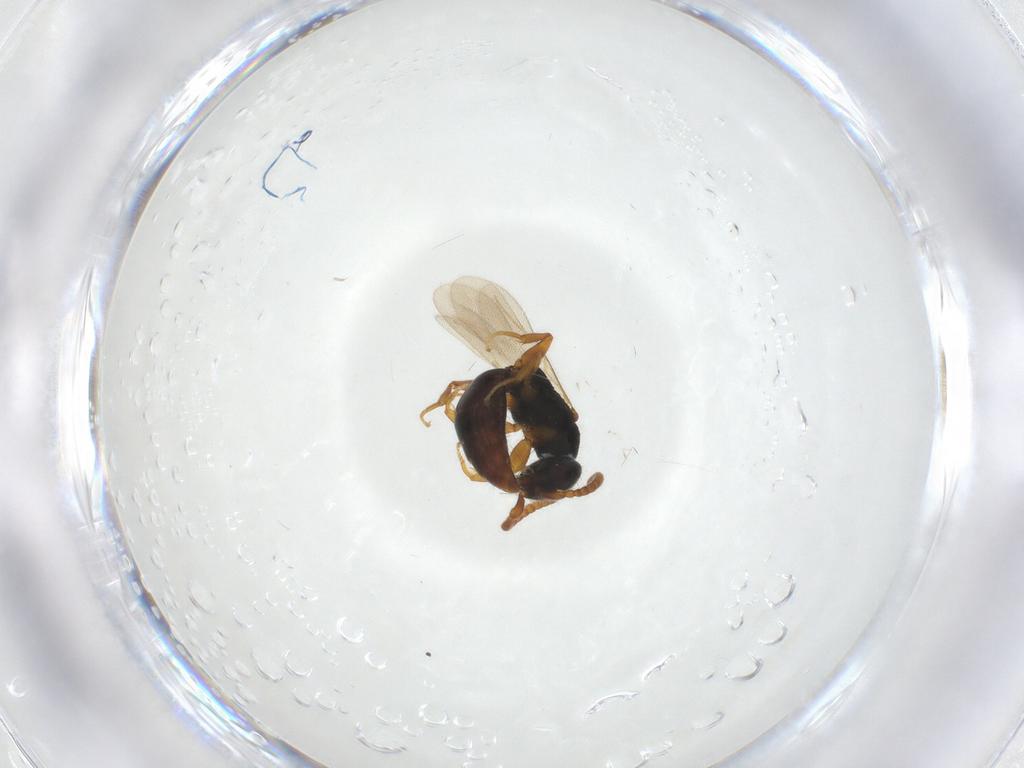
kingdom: Animalia
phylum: Arthropoda
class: Insecta
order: Hymenoptera
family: Bethylidae
